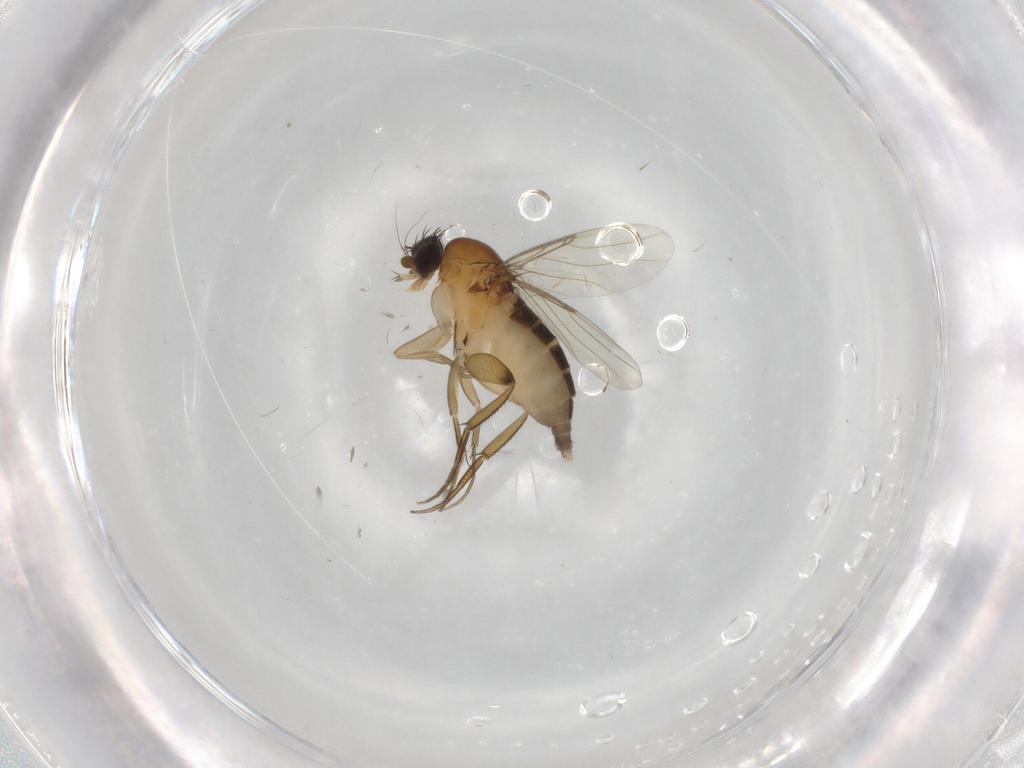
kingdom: Animalia
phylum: Arthropoda
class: Insecta
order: Diptera
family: Phoridae
